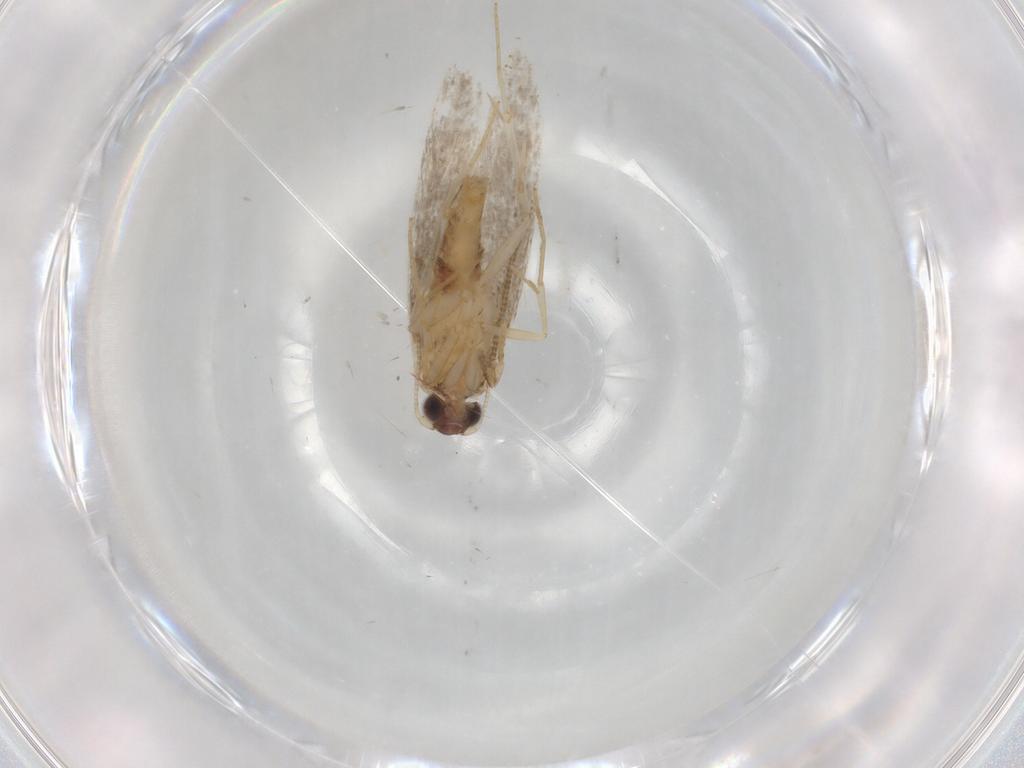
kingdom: Animalia
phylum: Arthropoda
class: Insecta
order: Lepidoptera
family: Tineidae
